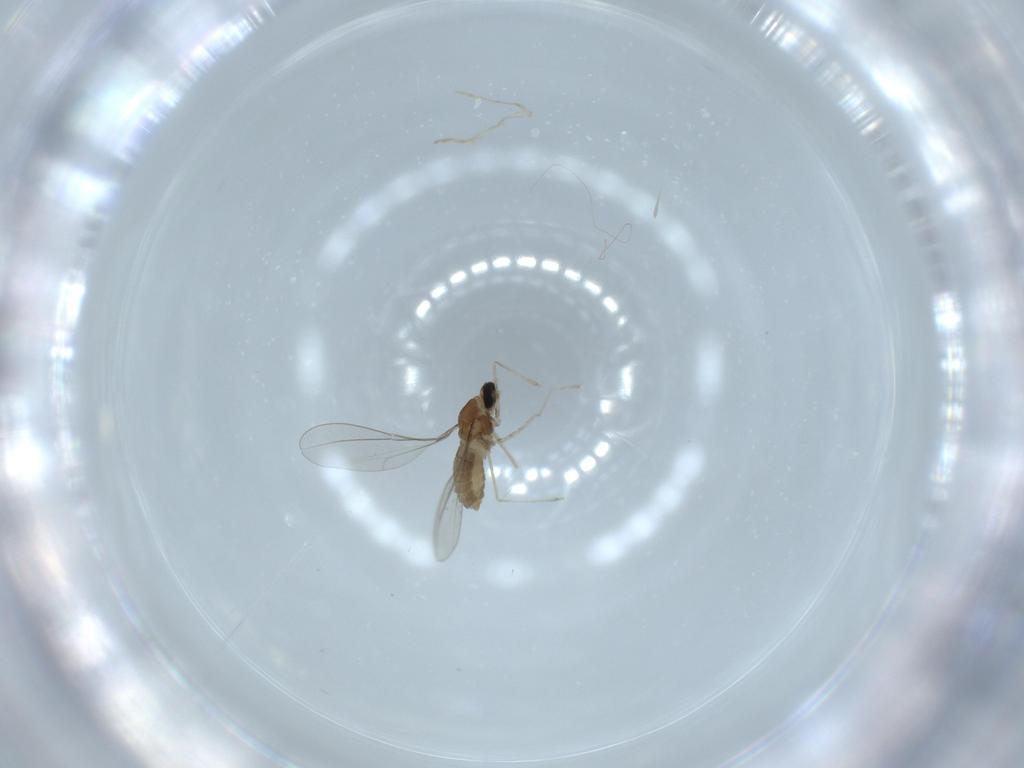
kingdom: Animalia
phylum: Arthropoda
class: Insecta
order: Diptera
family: Cecidomyiidae
